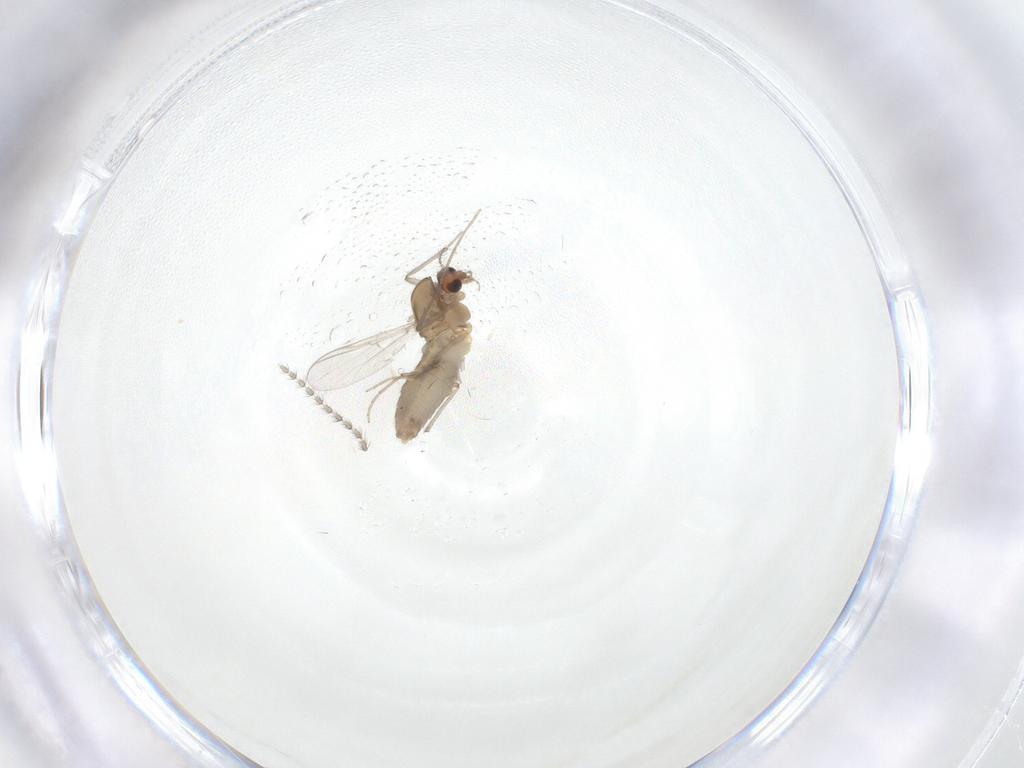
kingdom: Animalia
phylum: Arthropoda
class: Insecta
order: Diptera
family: Chironomidae
